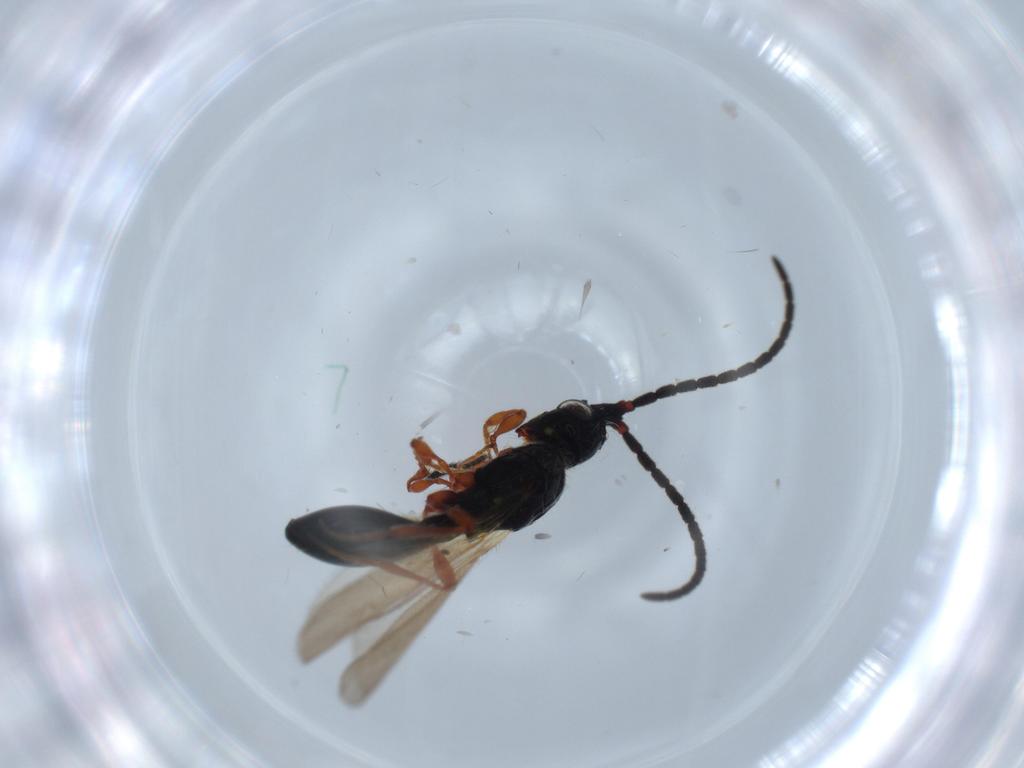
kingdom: Animalia
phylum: Arthropoda
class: Insecta
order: Hymenoptera
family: Diapriidae
